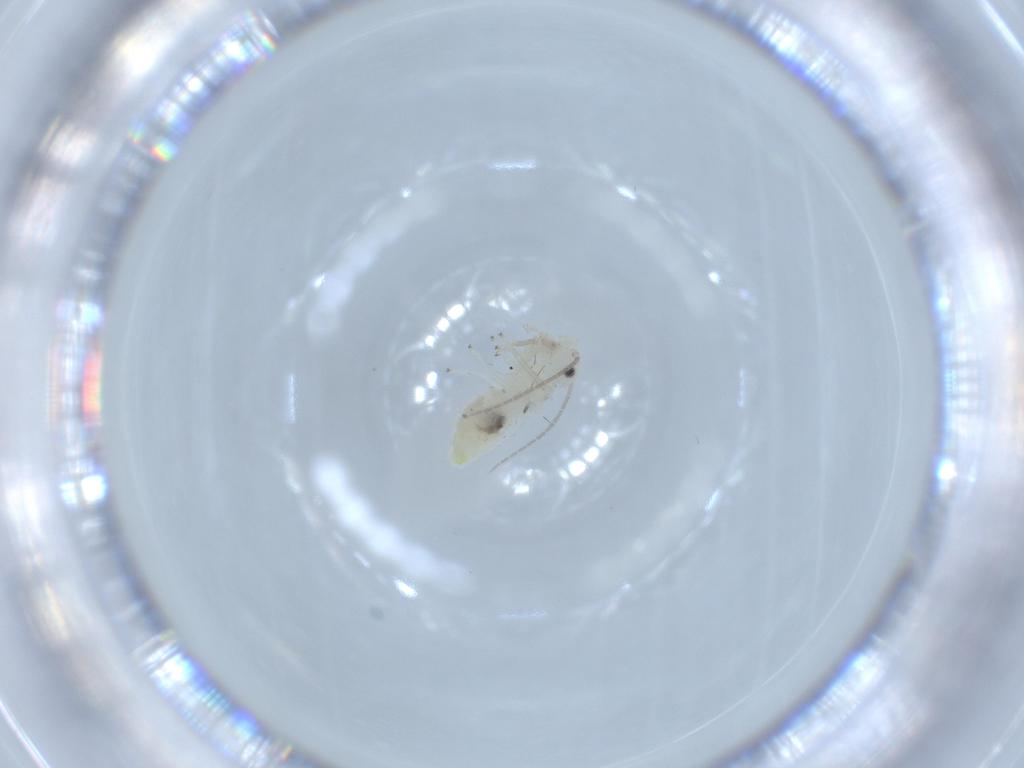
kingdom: Animalia
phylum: Arthropoda
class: Insecta
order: Psocodea
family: Caeciliusidae
